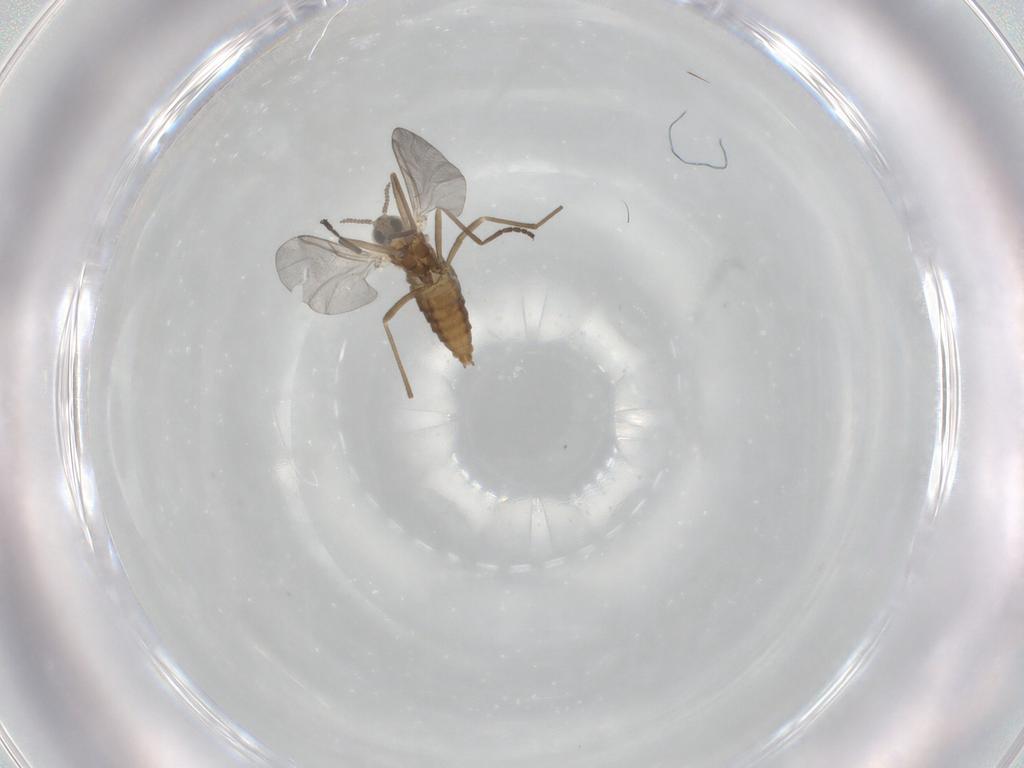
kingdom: Animalia
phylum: Arthropoda
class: Insecta
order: Diptera
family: Cecidomyiidae
